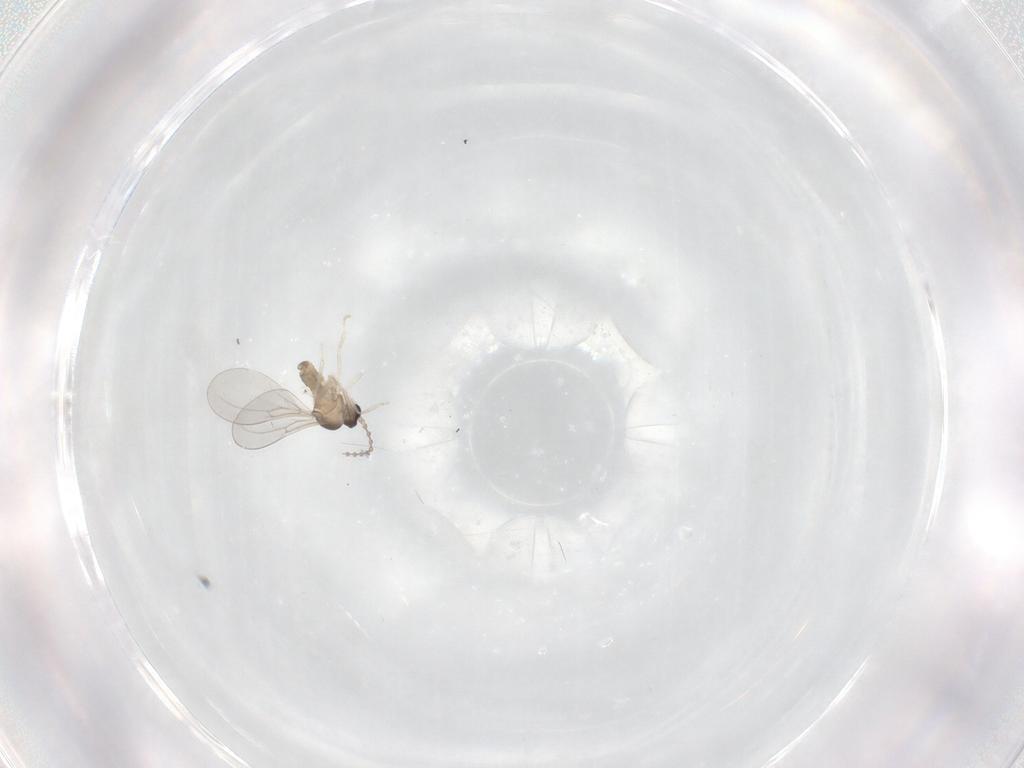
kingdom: Animalia
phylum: Arthropoda
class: Insecta
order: Diptera
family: Cecidomyiidae
